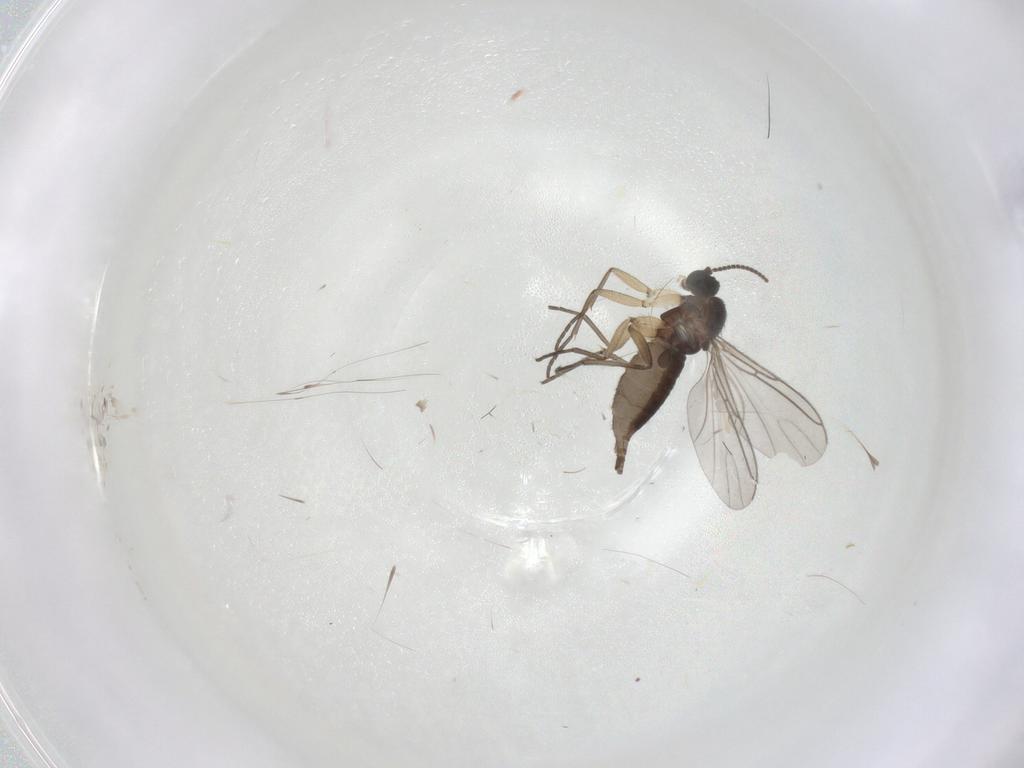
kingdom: Animalia
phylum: Arthropoda
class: Insecta
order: Diptera
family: Sciaridae
